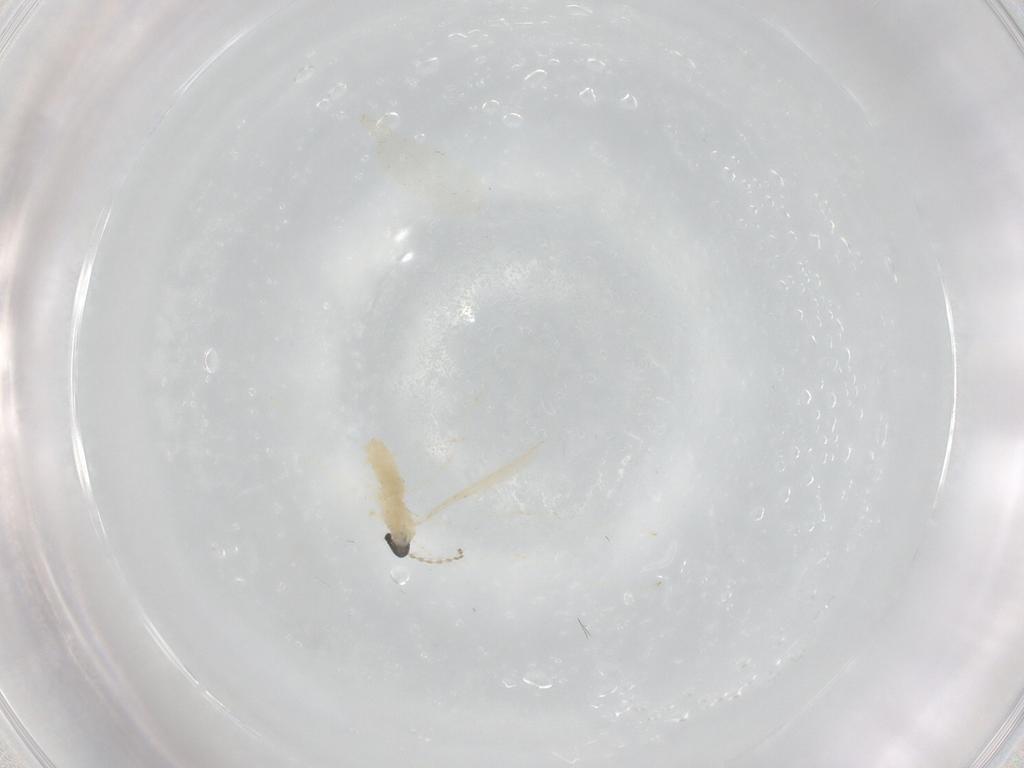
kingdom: Animalia
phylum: Arthropoda
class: Insecta
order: Diptera
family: Cecidomyiidae
